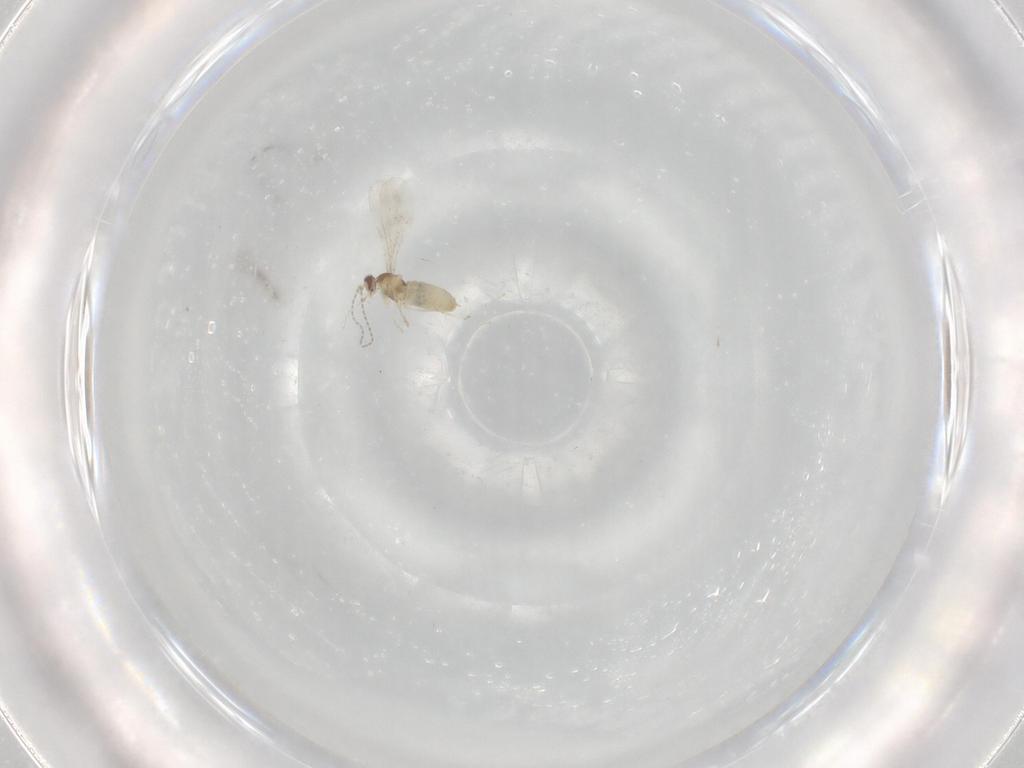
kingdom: Animalia
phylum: Arthropoda
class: Insecta
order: Diptera
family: Cecidomyiidae
